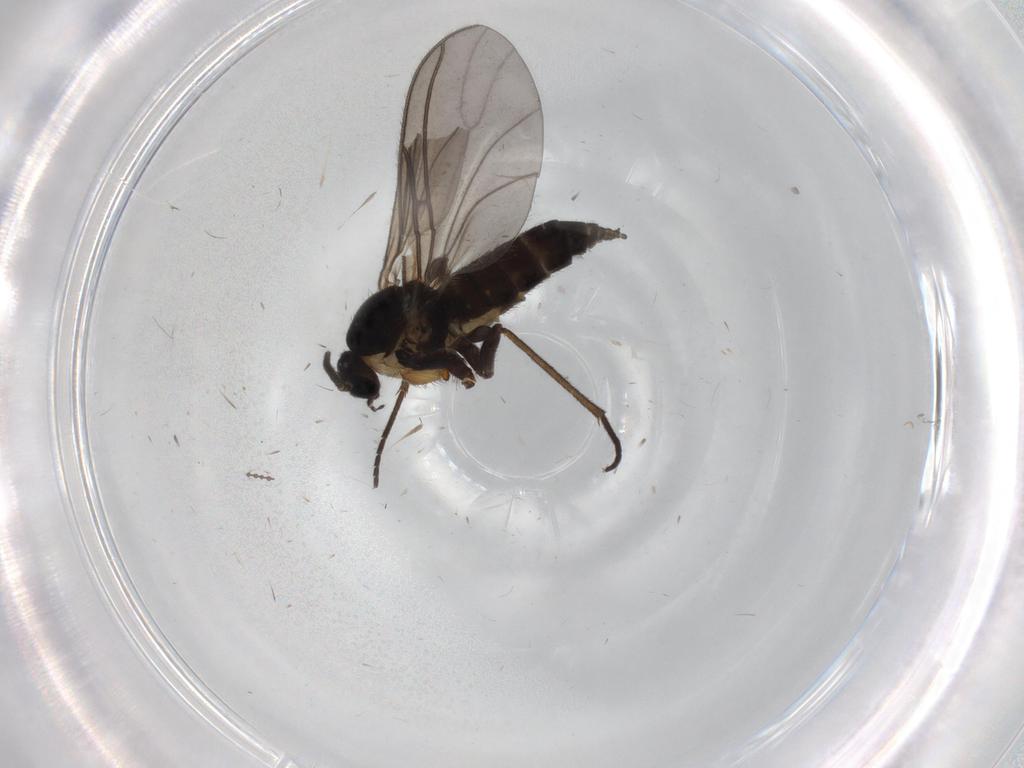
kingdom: Animalia
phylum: Arthropoda
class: Insecta
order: Diptera
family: Sciaridae
